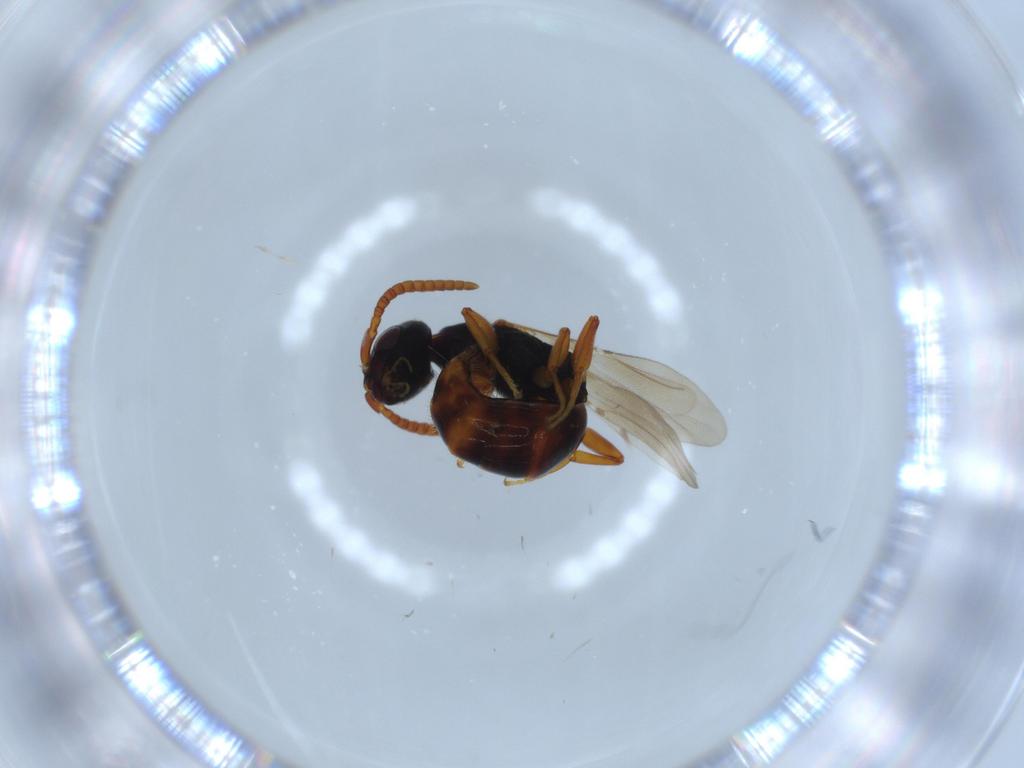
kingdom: Animalia
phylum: Arthropoda
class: Insecta
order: Hymenoptera
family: Bethylidae
